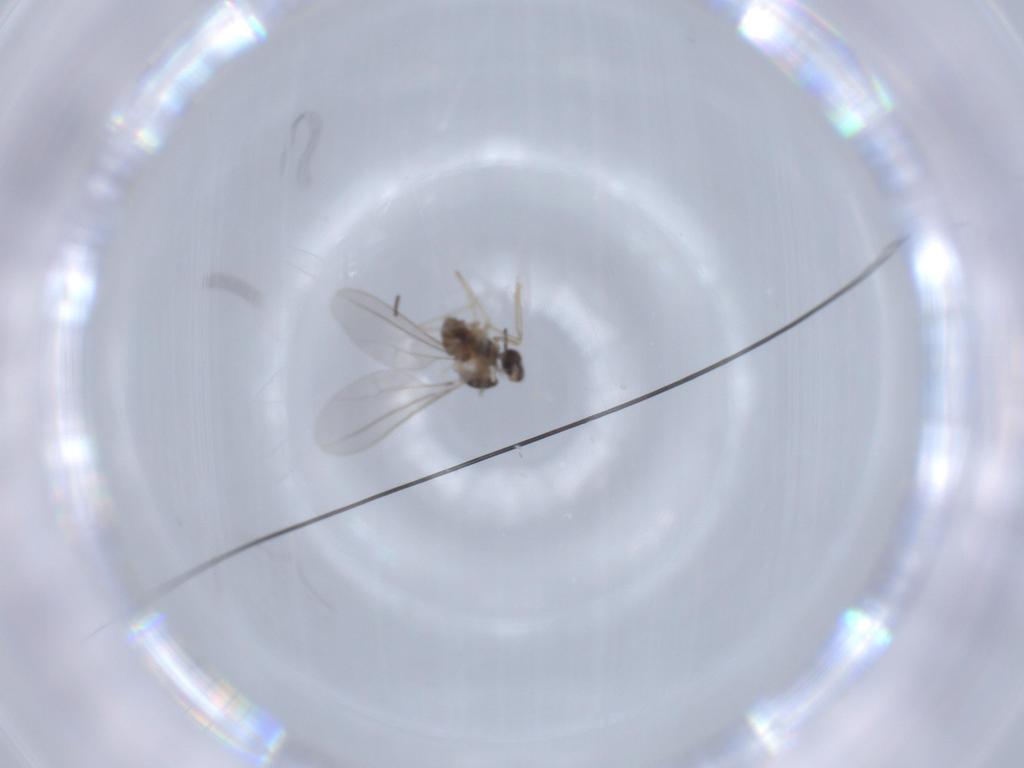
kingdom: Animalia
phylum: Arthropoda
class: Insecta
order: Diptera
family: Cecidomyiidae
